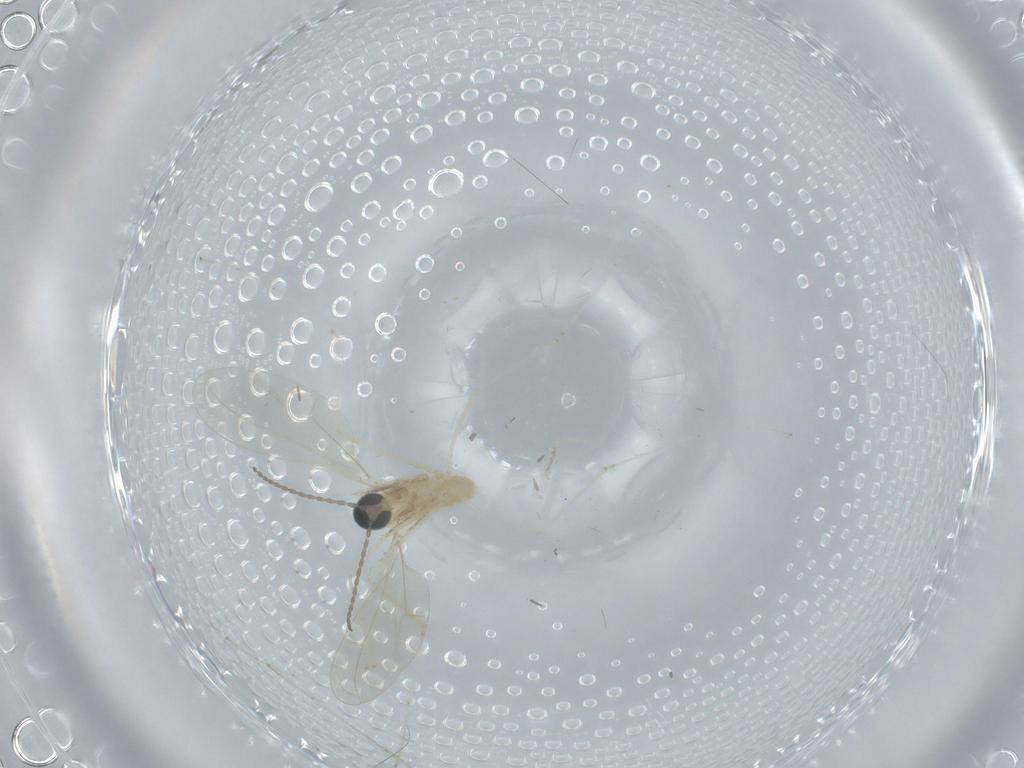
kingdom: Animalia
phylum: Arthropoda
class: Insecta
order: Diptera
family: Cecidomyiidae
